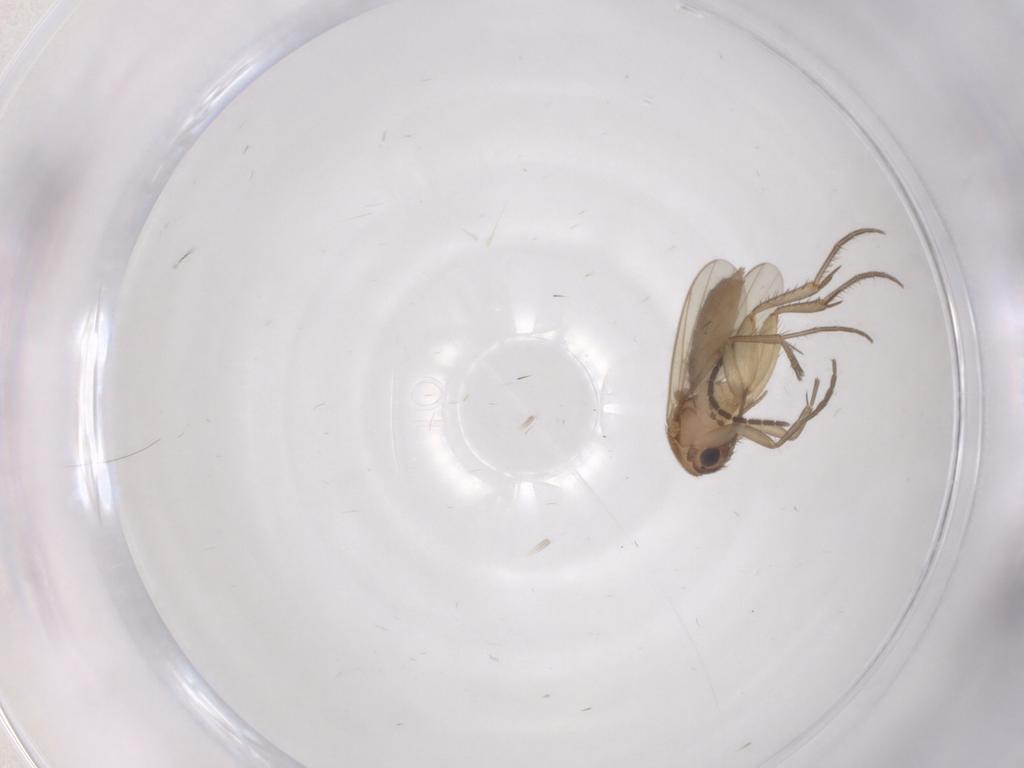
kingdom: Animalia
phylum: Arthropoda
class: Insecta
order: Diptera
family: Mycetophilidae
